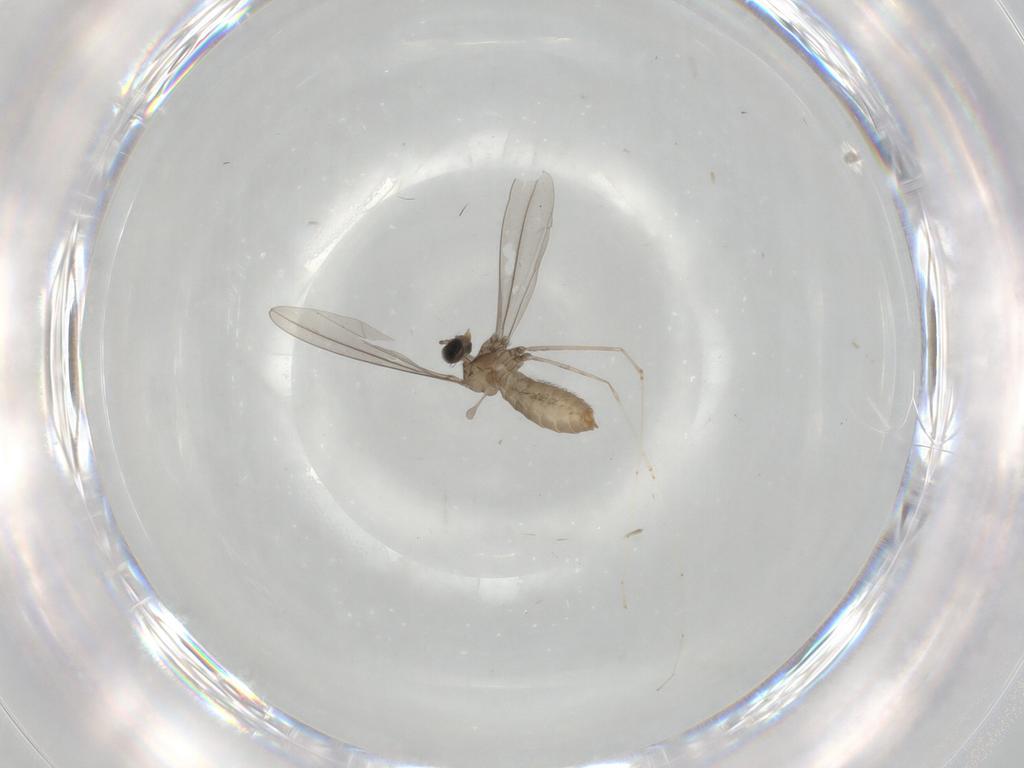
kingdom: Animalia
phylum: Arthropoda
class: Insecta
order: Diptera
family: Cecidomyiidae
